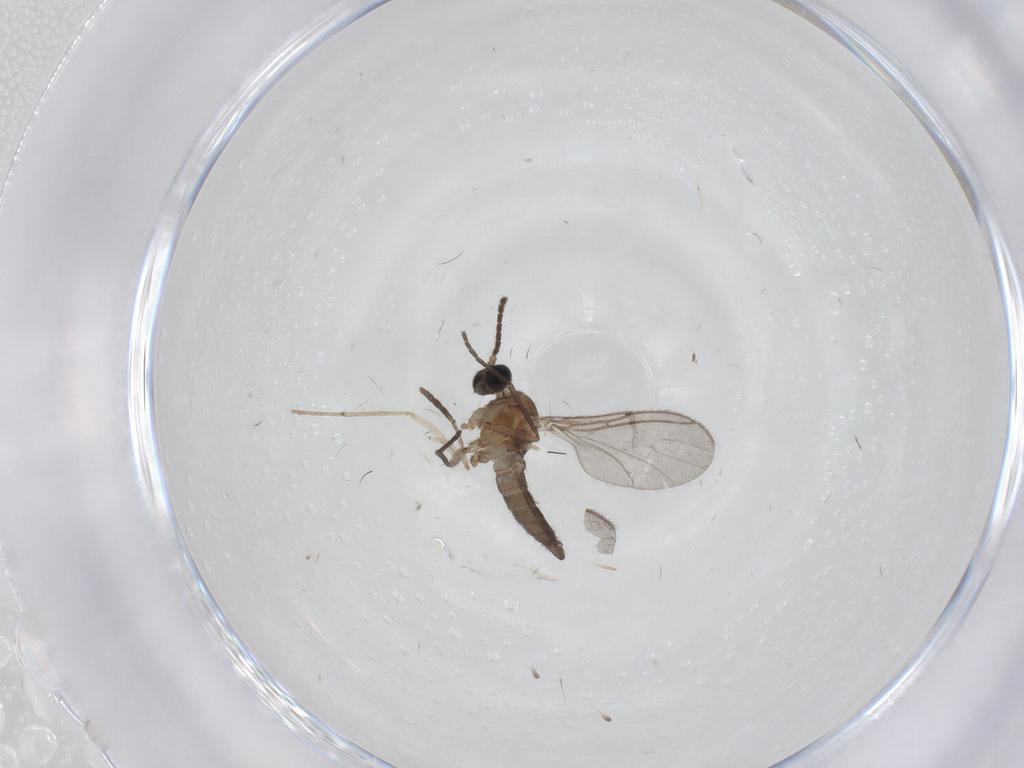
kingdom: Animalia
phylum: Arthropoda
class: Insecta
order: Diptera
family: Sciaridae
